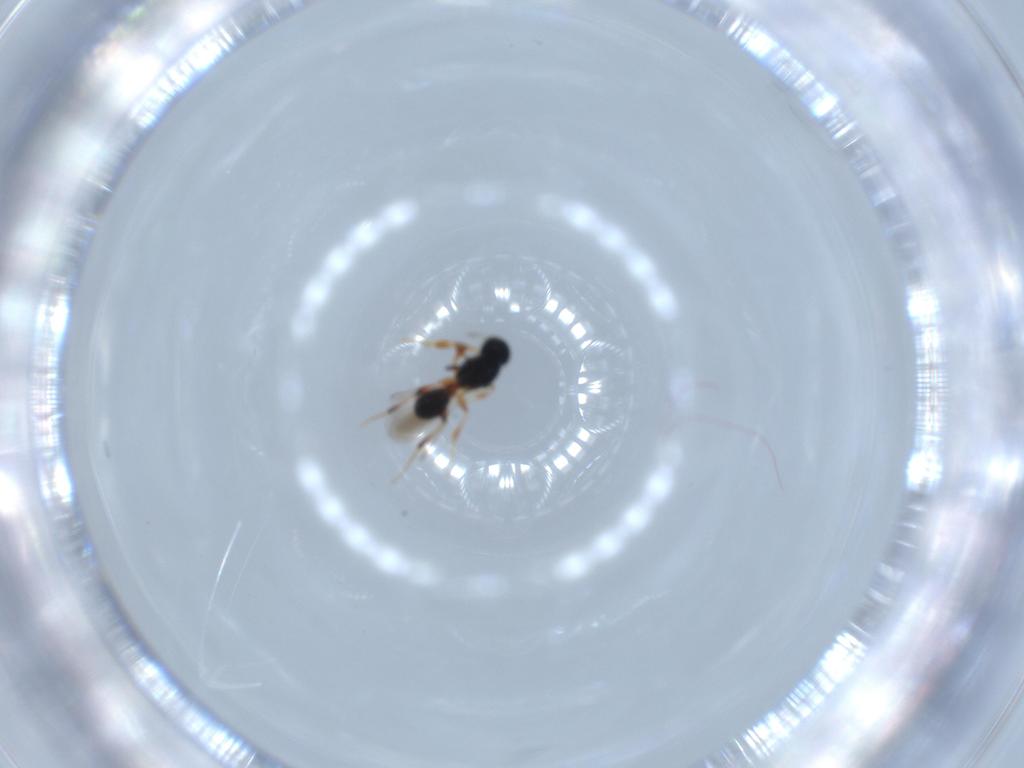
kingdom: Animalia
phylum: Arthropoda
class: Insecta
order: Hymenoptera
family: Scelionidae
